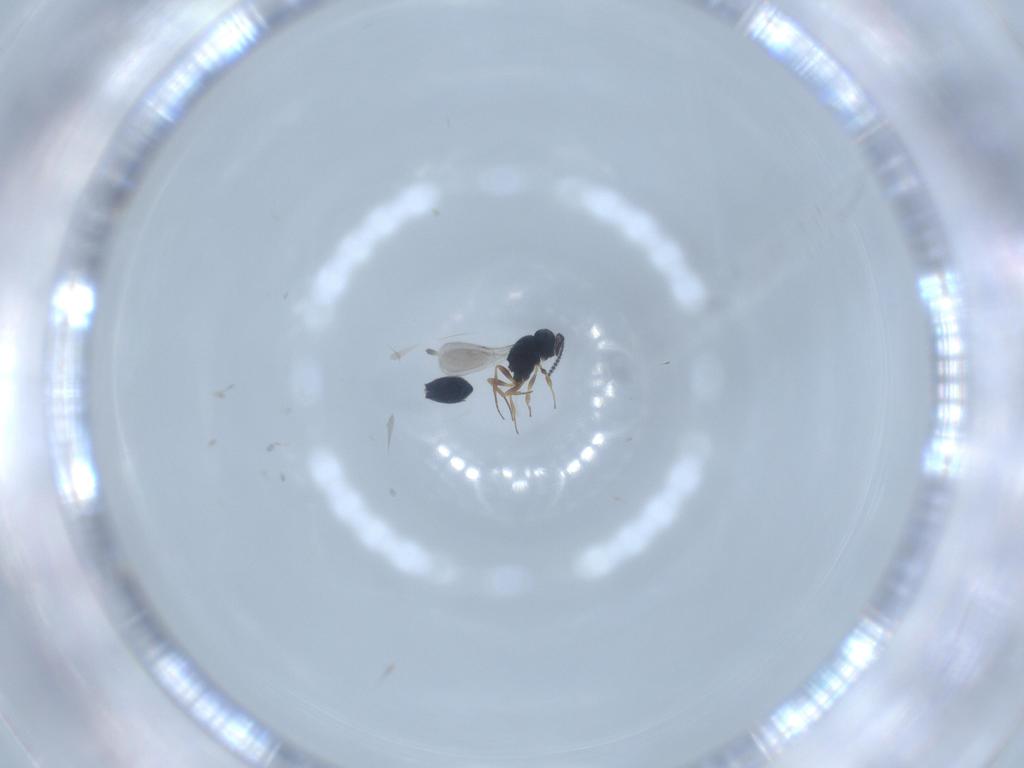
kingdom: Animalia
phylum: Arthropoda
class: Insecta
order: Hymenoptera
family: Scelionidae
